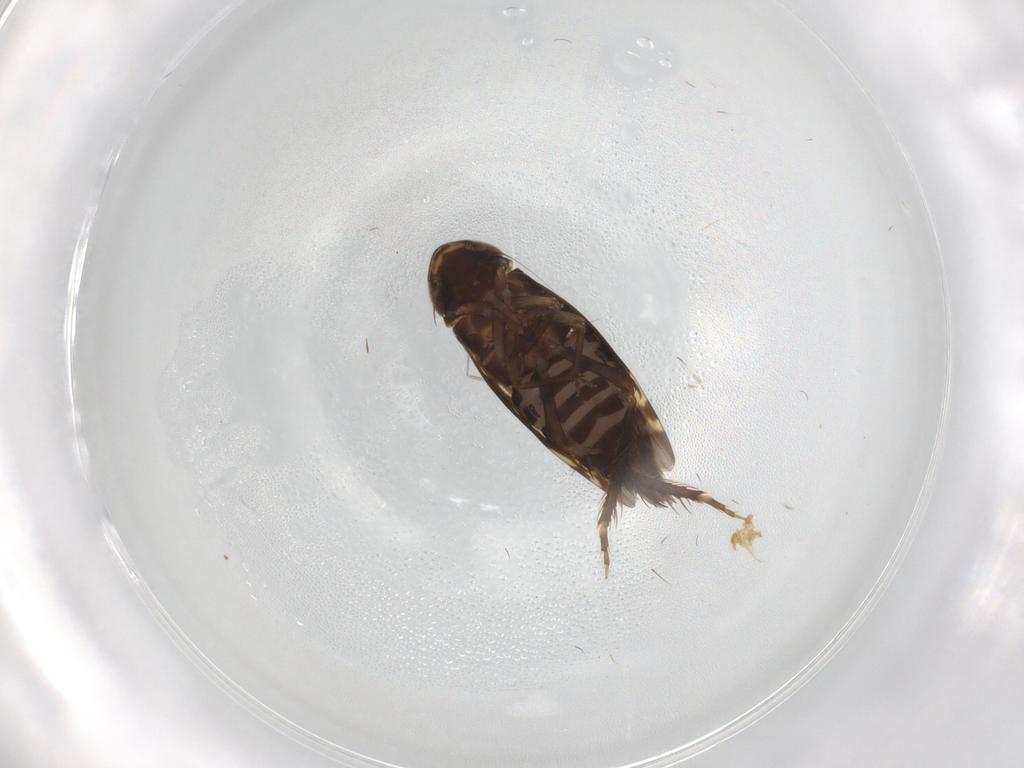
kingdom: Animalia
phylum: Arthropoda
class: Insecta
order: Hemiptera
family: Cicadellidae
